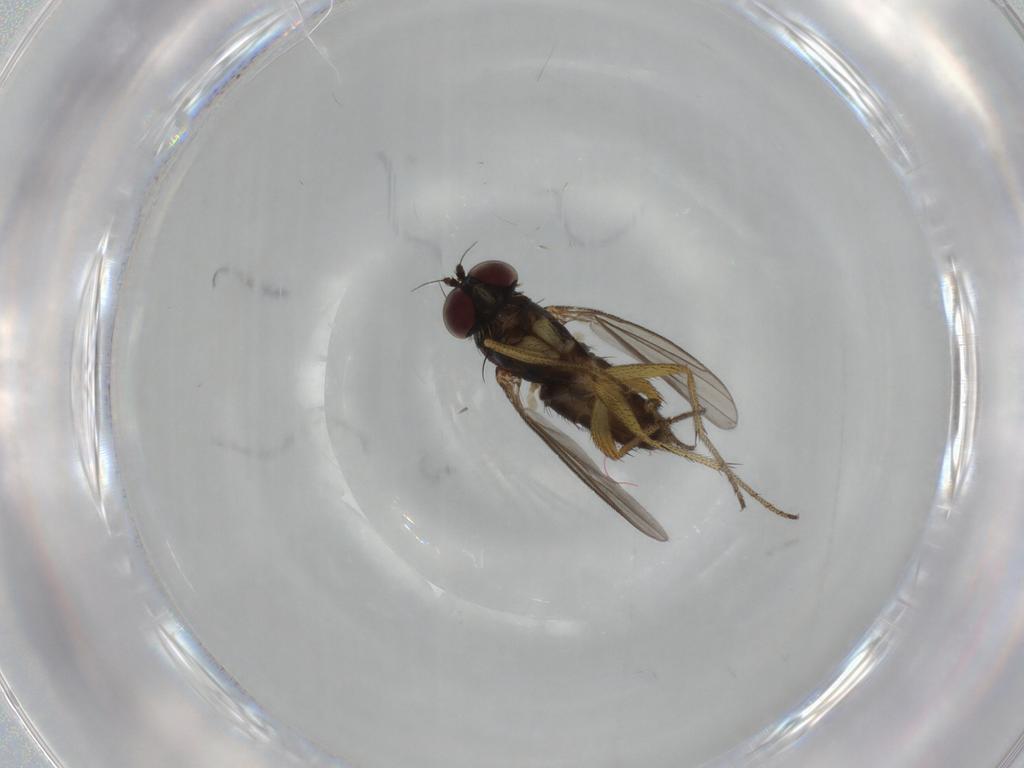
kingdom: Animalia
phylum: Arthropoda
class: Insecta
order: Diptera
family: Dolichopodidae
